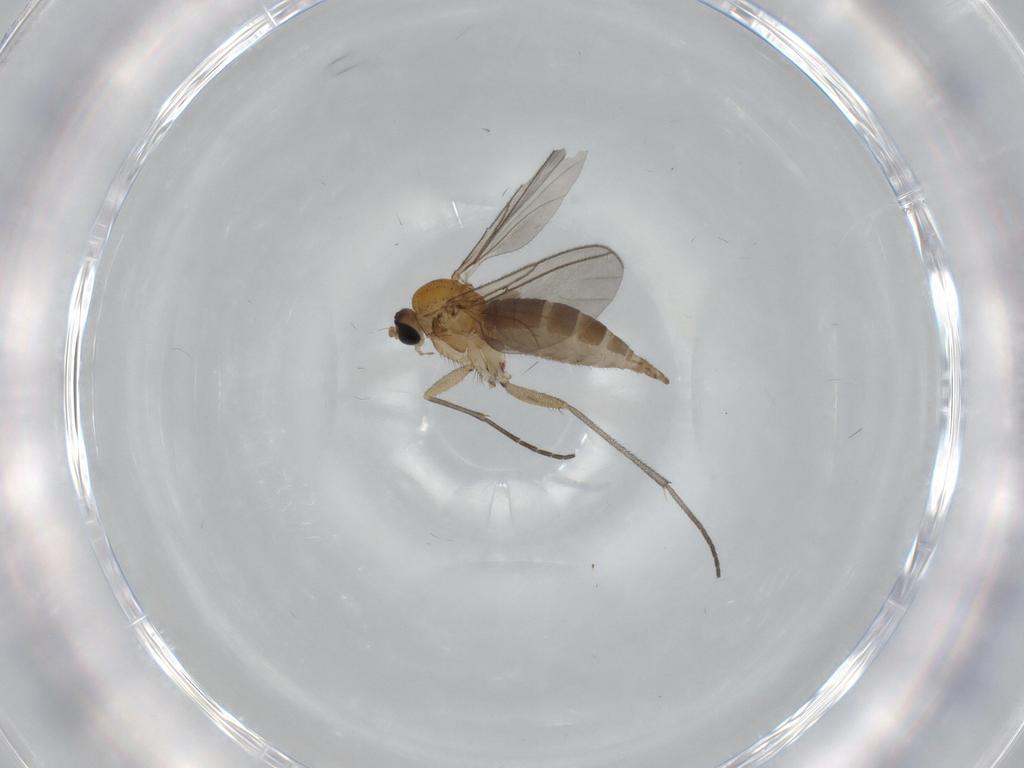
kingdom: Animalia
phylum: Arthropoda
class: Insecta
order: Diptera
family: Sciaridae
